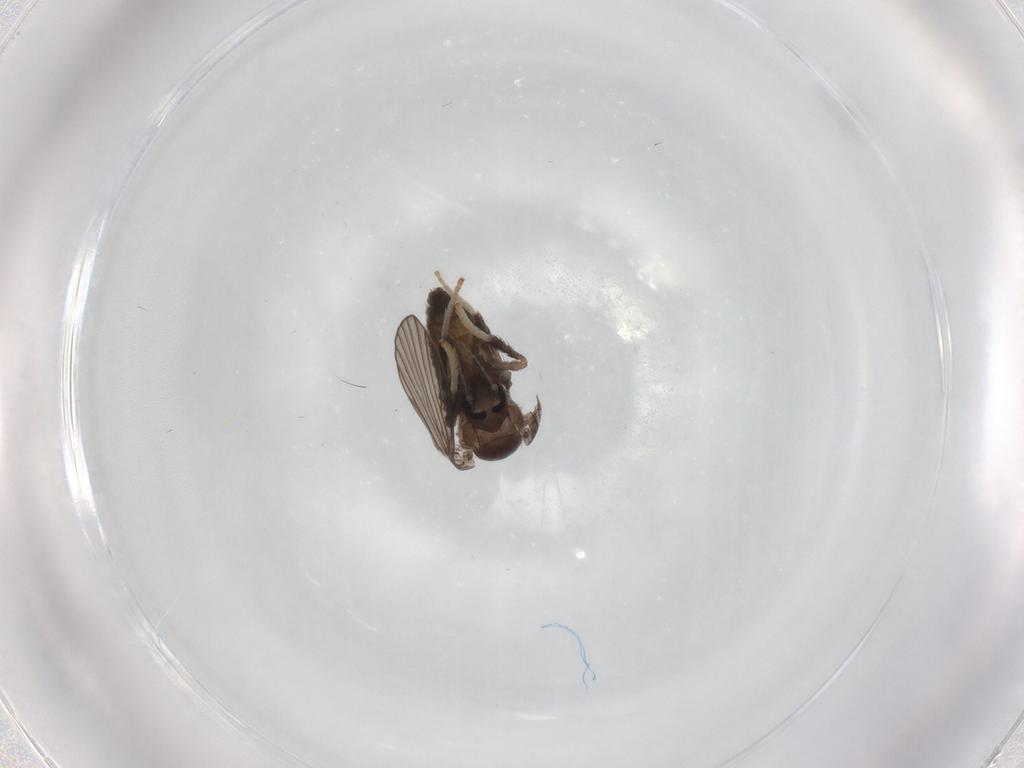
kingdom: Animalia
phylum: Arthropoda
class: Insecta
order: Diptera
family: Psychodidae
